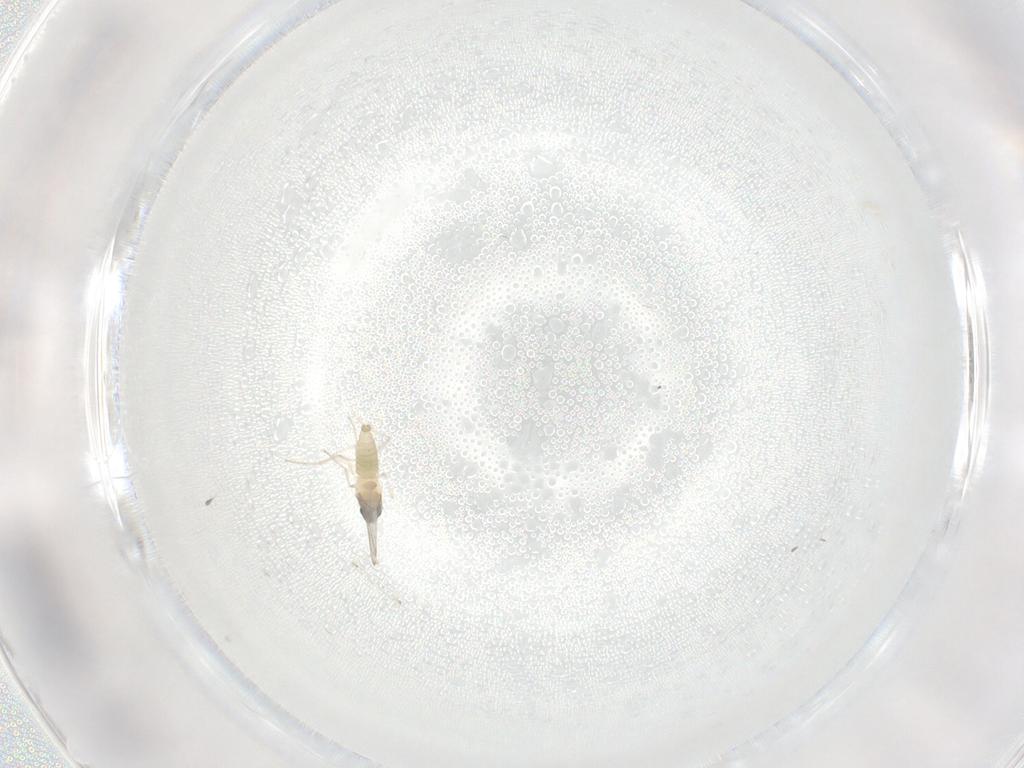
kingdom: Animalia
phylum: Arthropoda
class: Insecta
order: Diptera
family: Cecidomyiidae
